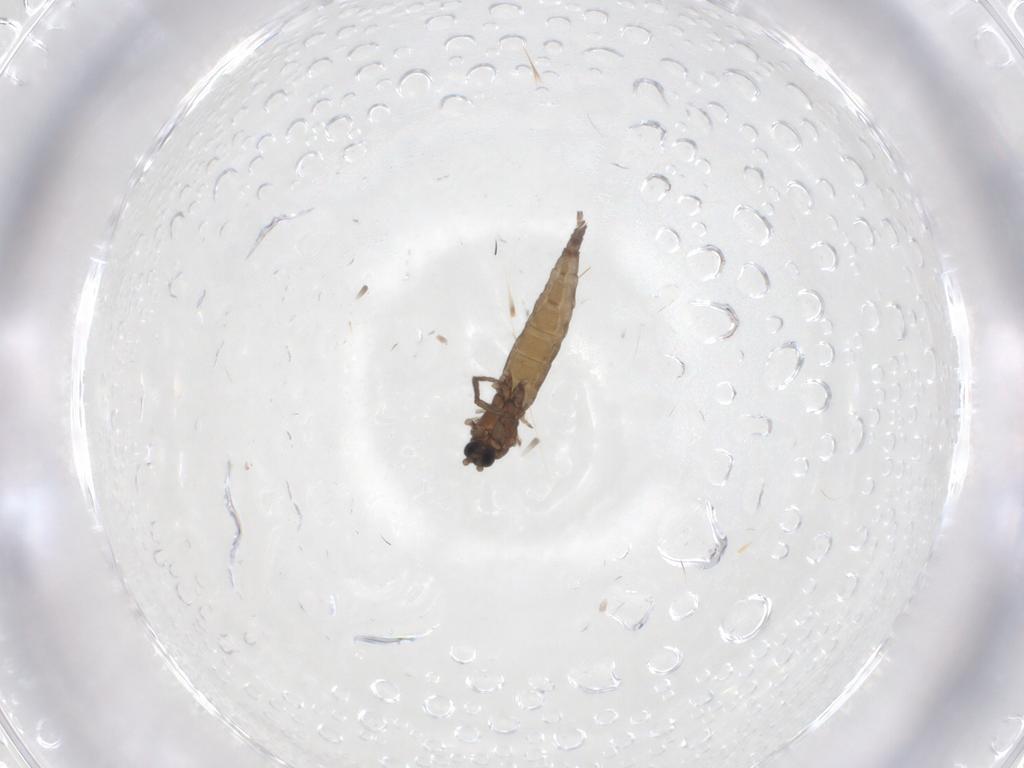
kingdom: Animalia
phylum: Arthropoda
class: Insecta
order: Diptera
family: Sciaridae
